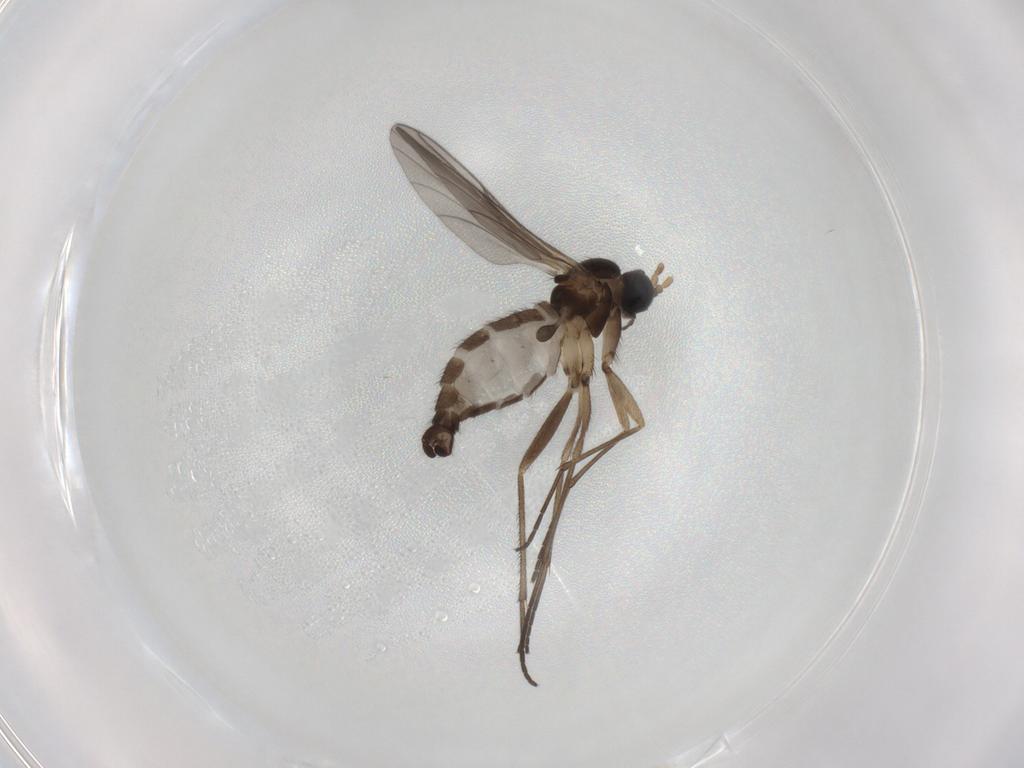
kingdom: Animalia
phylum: Arthropoda
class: Insecta
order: Diptera
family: Sciaridae
